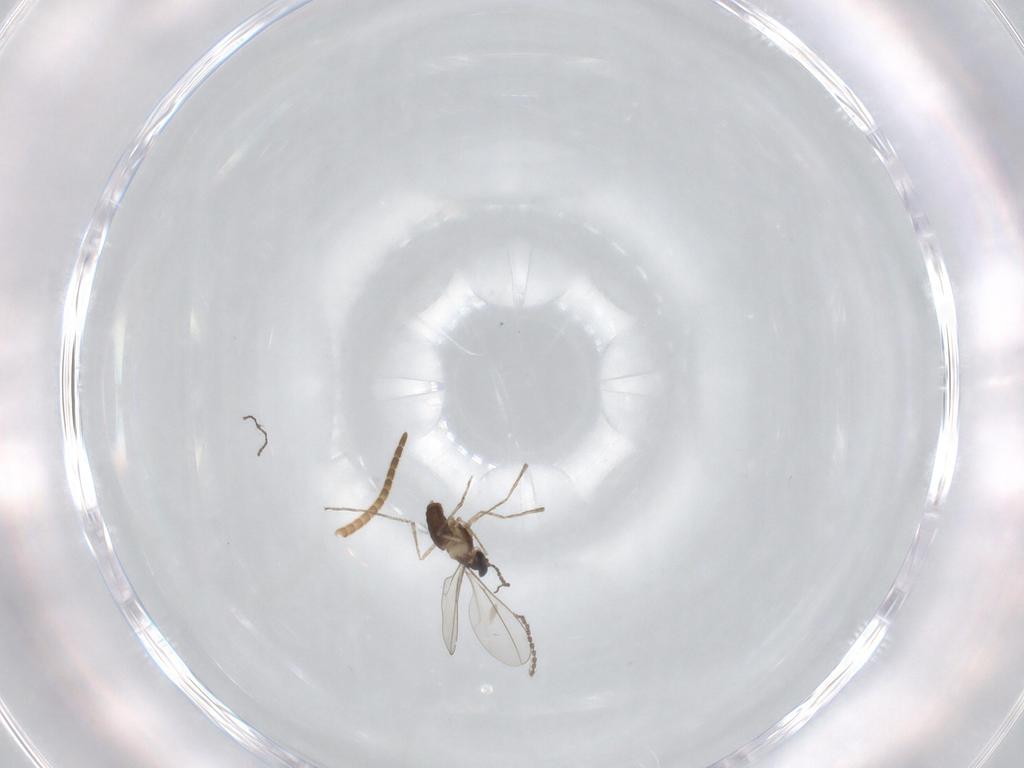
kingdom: Animalia
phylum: Arthropoda
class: Insecta
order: Diptera
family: Cecidomyiidae
